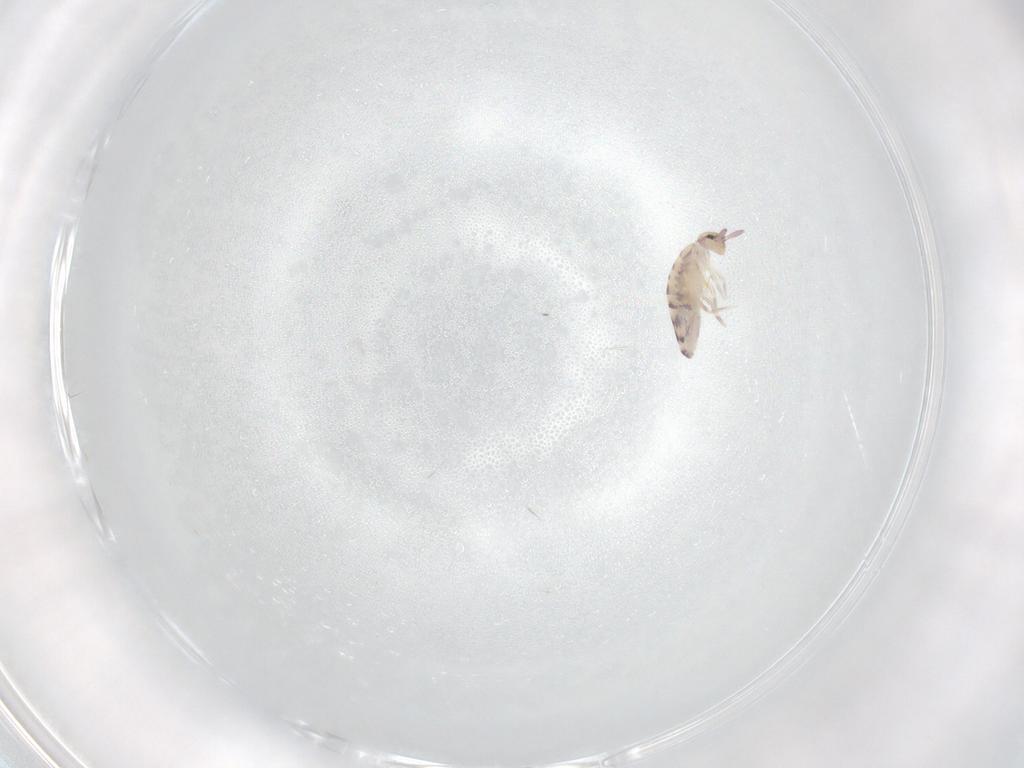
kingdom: Animalia
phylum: Arthropoda
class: Collembola
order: Entomobryomorpha
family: Entomobryidae
